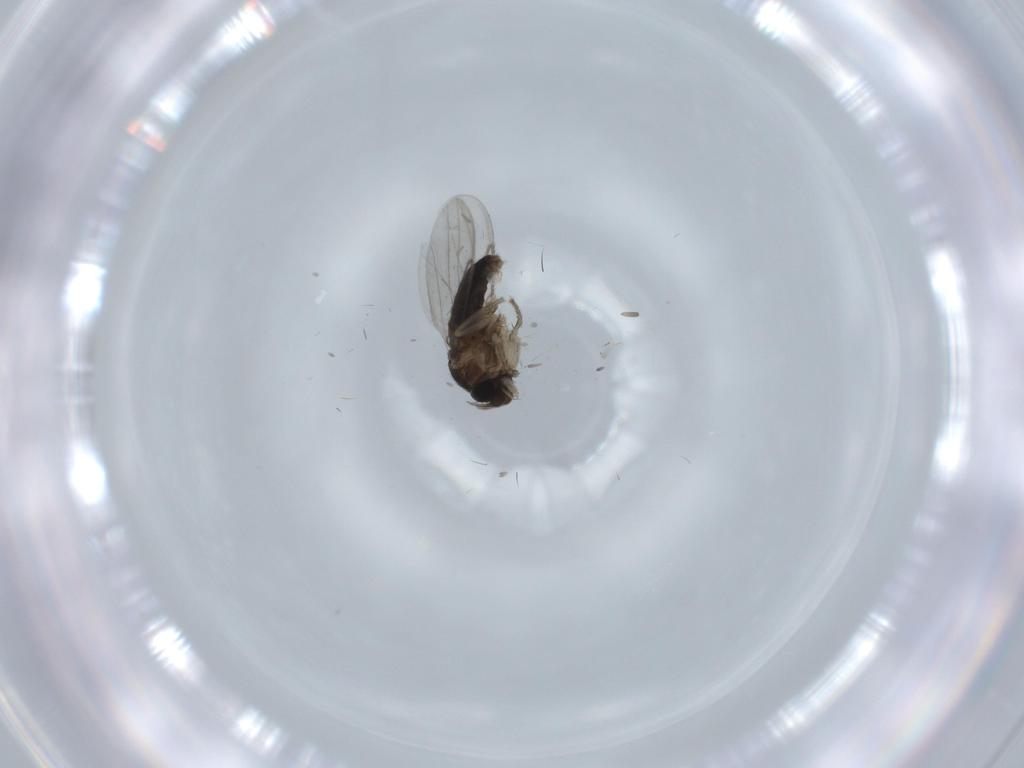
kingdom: Animalia
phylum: Arthropoda
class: Insecta
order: Diptera
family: Phoridae
